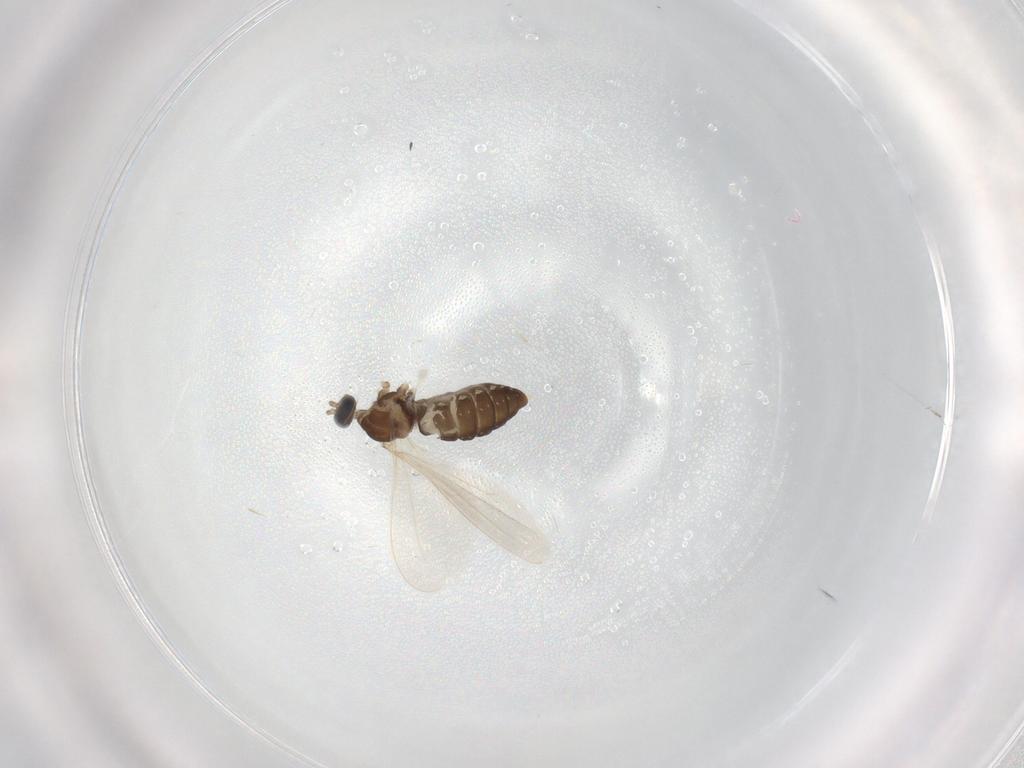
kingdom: Animalia
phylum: Arthropoda
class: Insecta
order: Diptera
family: Cecidomyiidae
